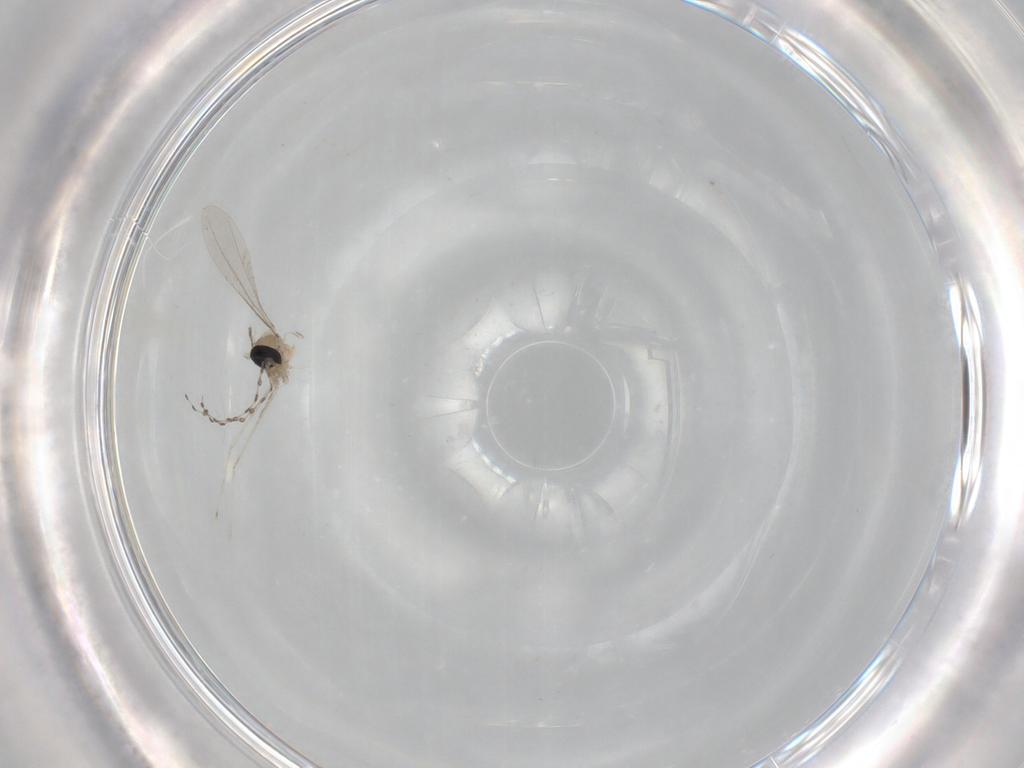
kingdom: Animalia
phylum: Arthropoda
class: Insecta
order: Diptera
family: Cecidomyiidae
